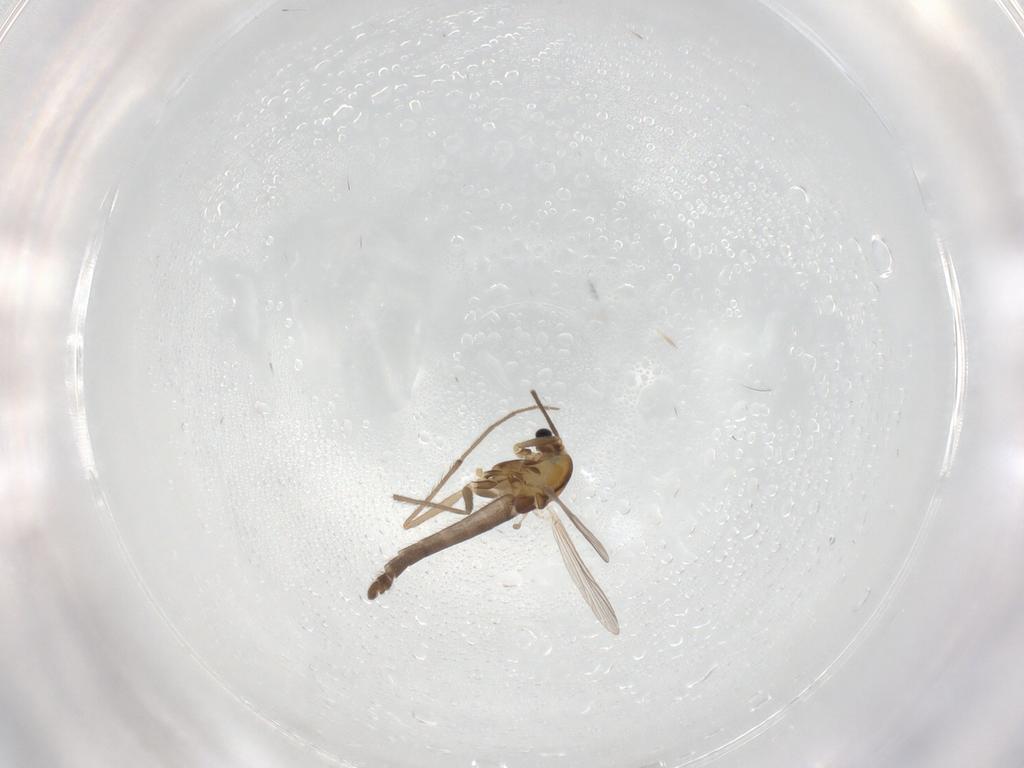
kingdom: Animalia
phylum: Arthropoda
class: Insecta
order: Diptera
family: Chironomidae
